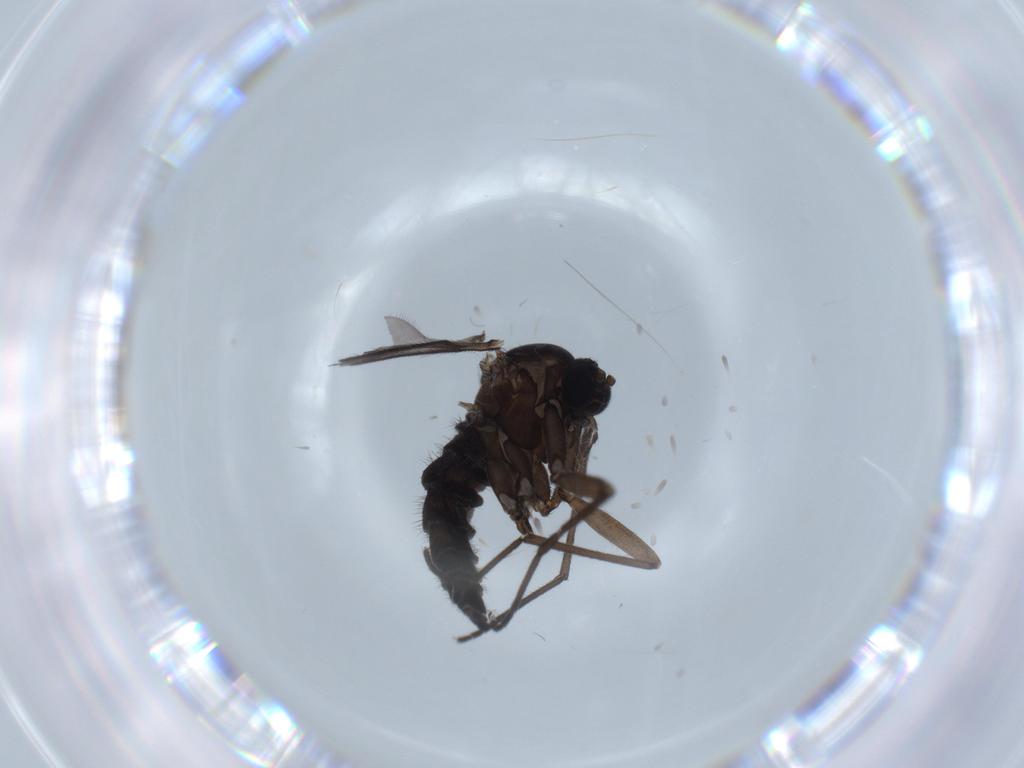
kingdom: Animalia
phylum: Arthropoda
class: Insecta
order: Diptera
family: Sciaridae
